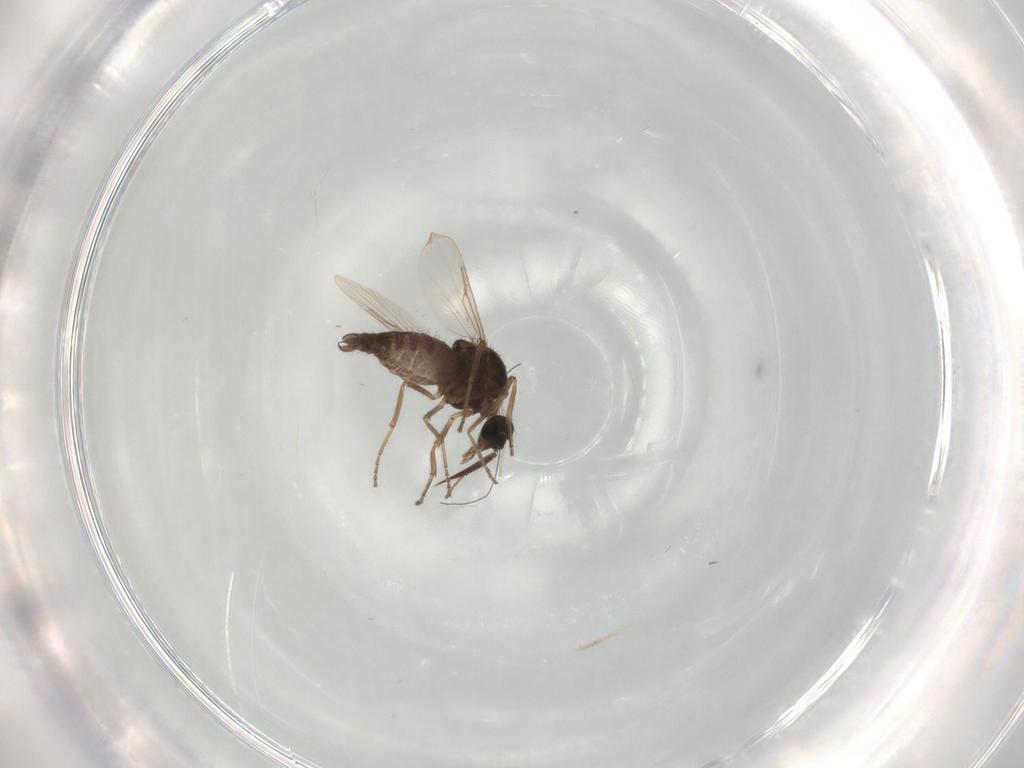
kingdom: Animalia
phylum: Arthropoda
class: Insecta
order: Diptera
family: Ceratopogonidae
